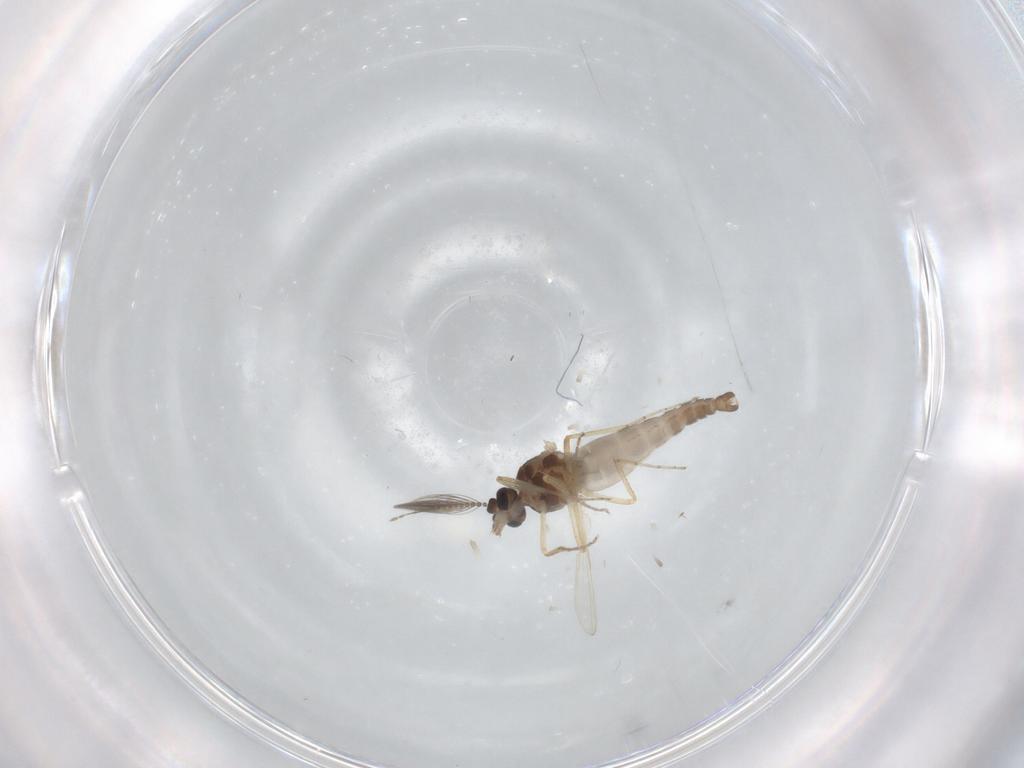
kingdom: Animalia
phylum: Arthropoda
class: Insecta
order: Diptera
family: Ceratopogonidae
